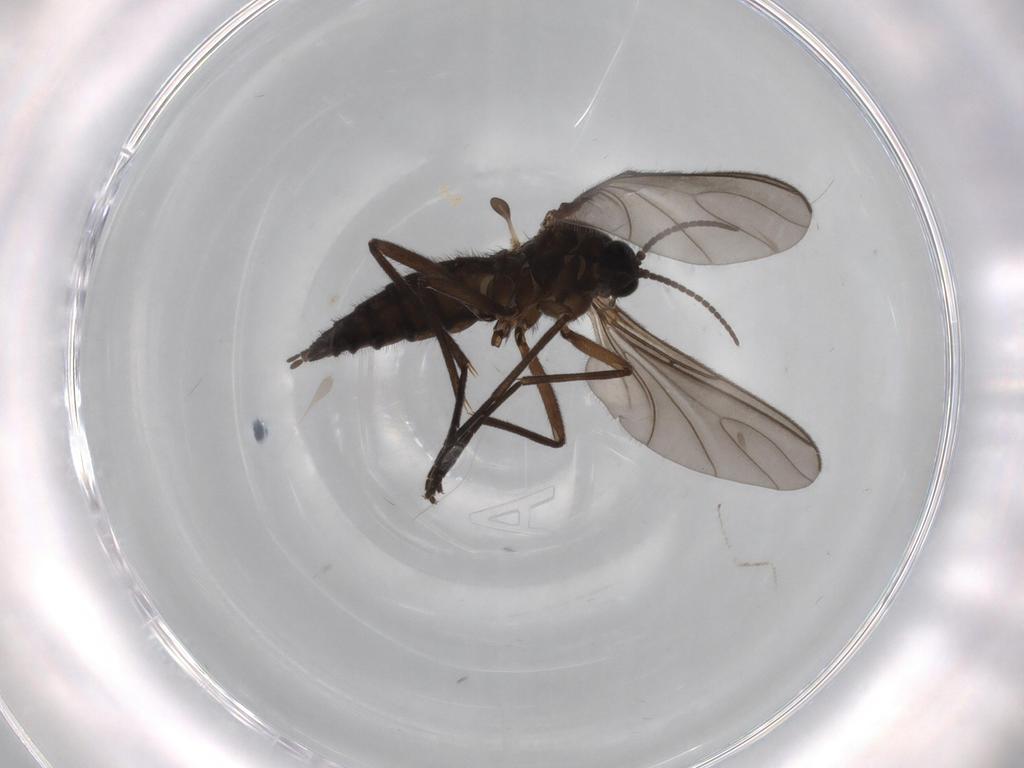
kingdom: Animalia
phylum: Arthropoda
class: Insecta
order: Diptera
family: Sciaridae
